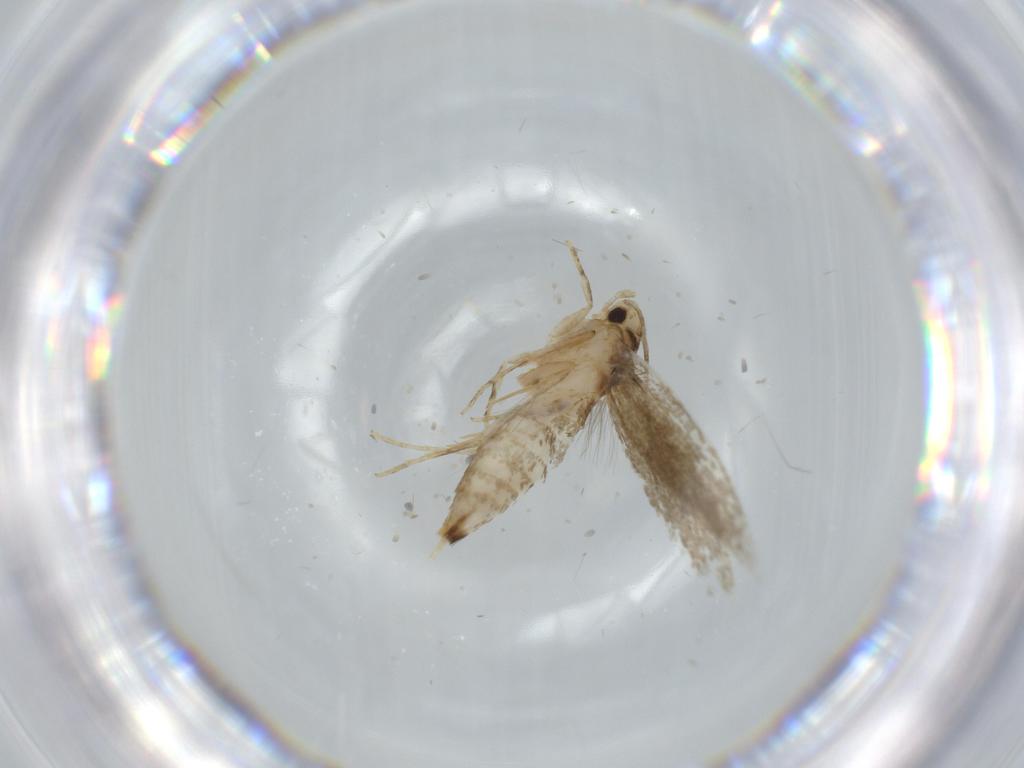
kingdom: Animalia
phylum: Arthropoda
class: Insecta
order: Lepidoptera
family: Tineidae
